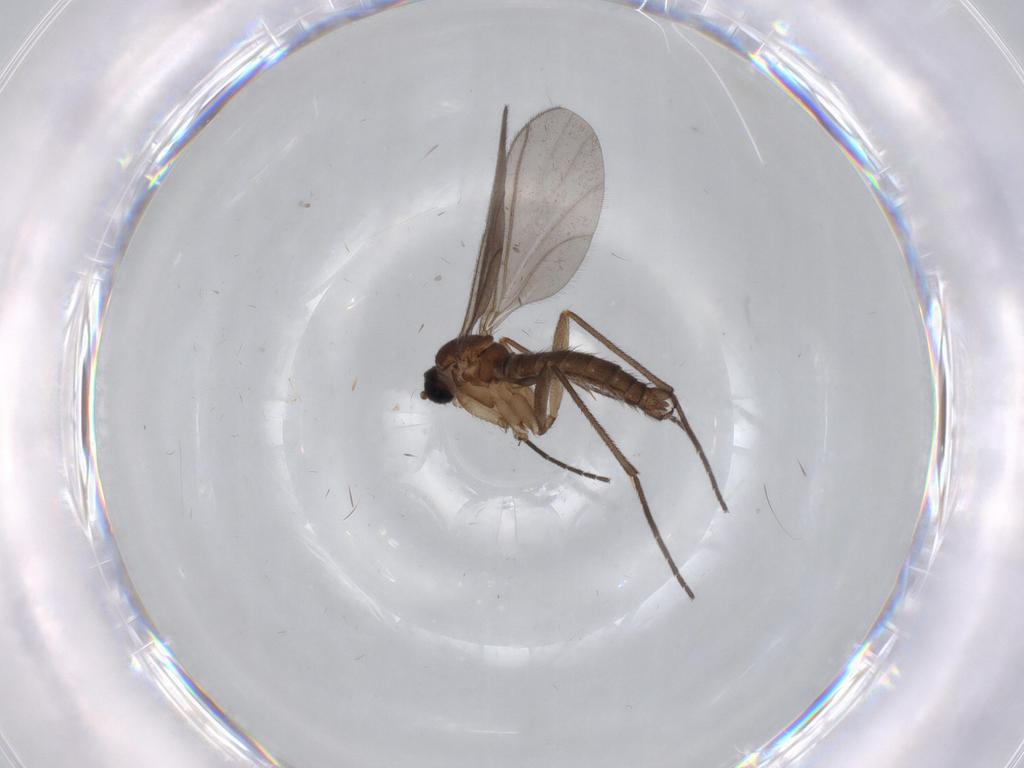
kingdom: Animalia
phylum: Arthropoda
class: Insecta
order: Diptera
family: Sciaridae
